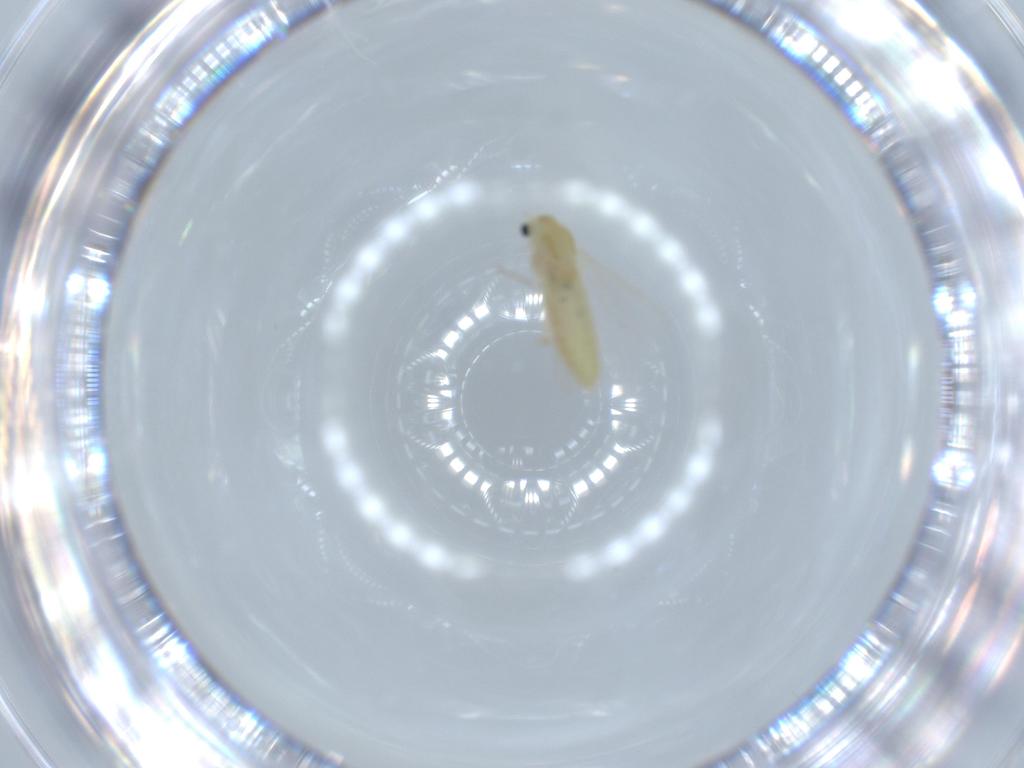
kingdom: Animalia
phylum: Arthropoda
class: Insecta
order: Diptera
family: Chironomidae
